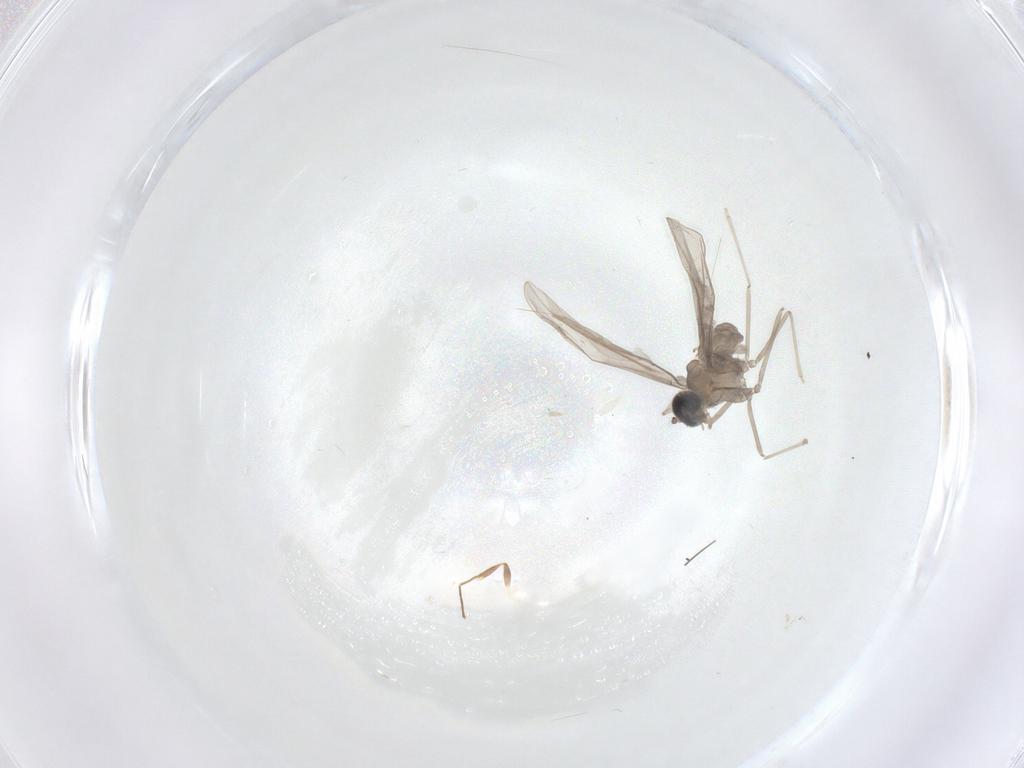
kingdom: Animalia
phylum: Arthropoda
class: Insecta
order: Diptera
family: Cecidomyiidae
